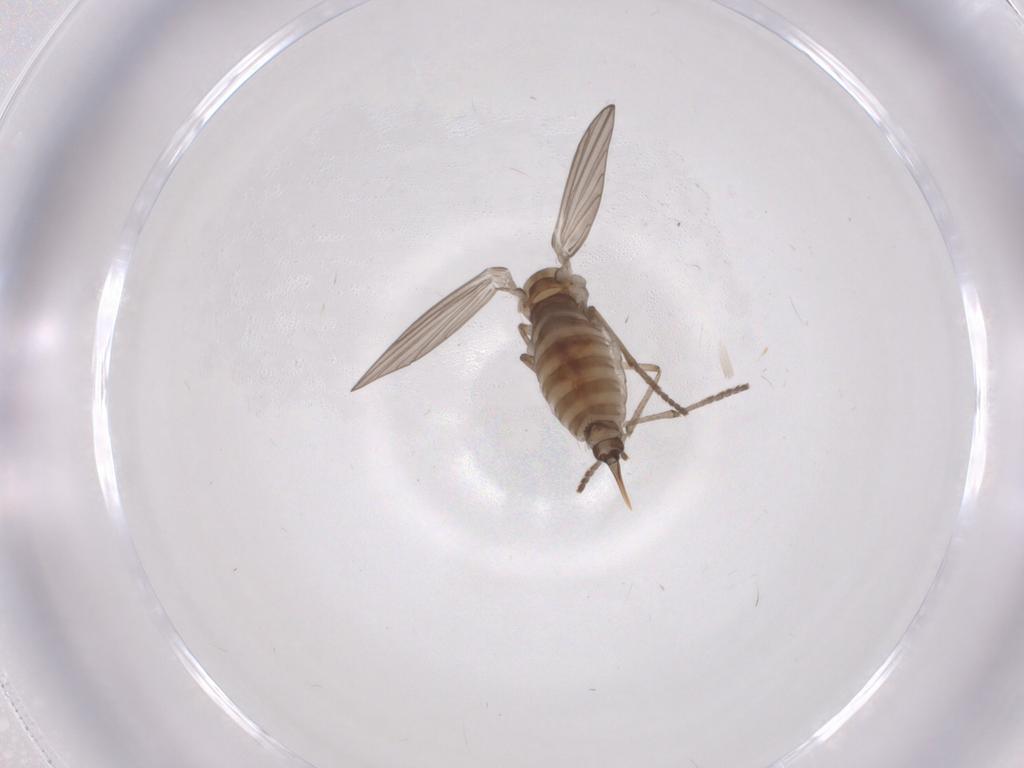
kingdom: Animalia
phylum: Arthropoda
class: Insecta
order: Diptera
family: Psychodidae
